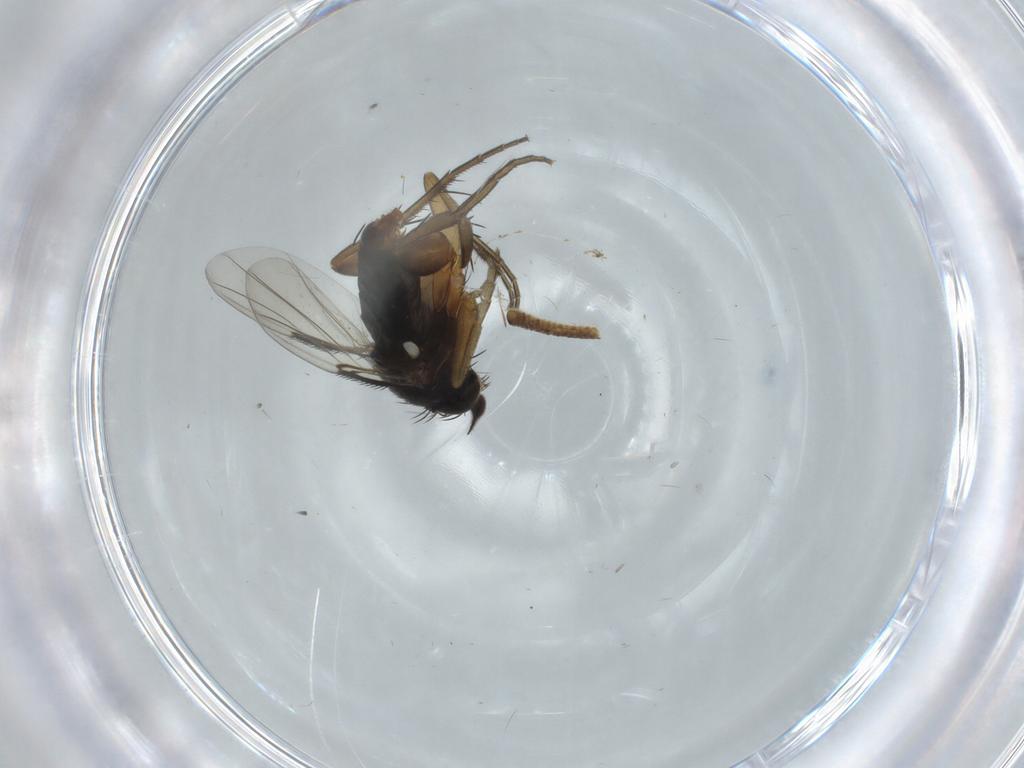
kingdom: Animalia
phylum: Arthropoda
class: Insecta
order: Diptera
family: Phoridae
